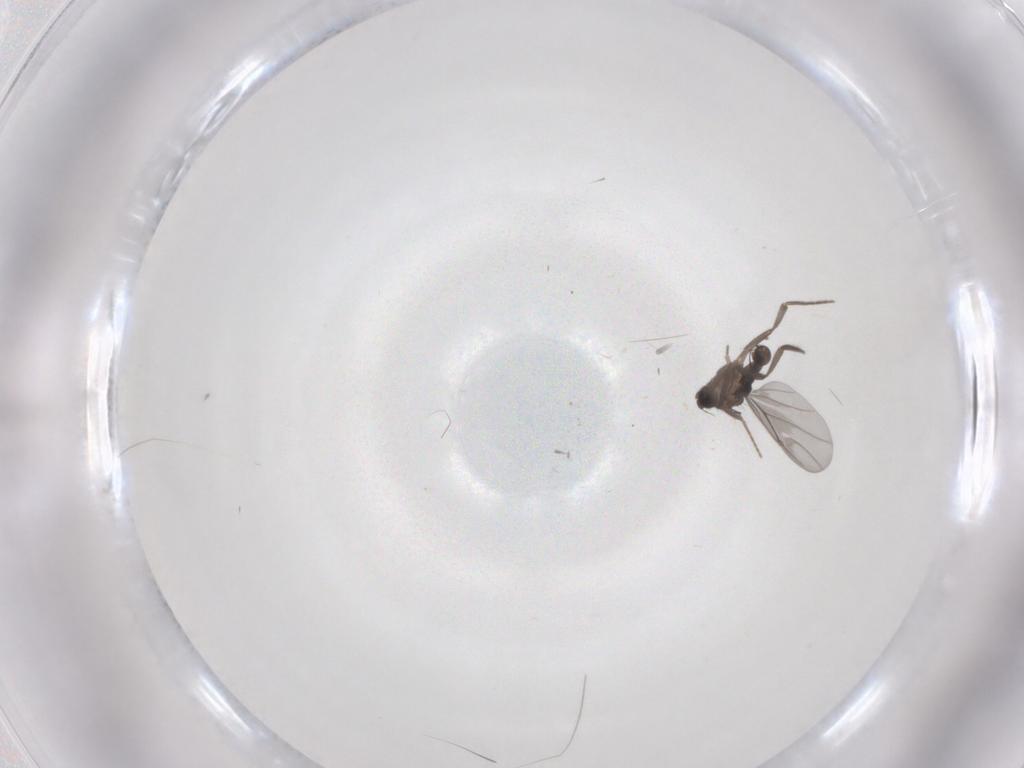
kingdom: Animalia
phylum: Arthropoda
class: Insecta
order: Diptera
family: Sciaridae
